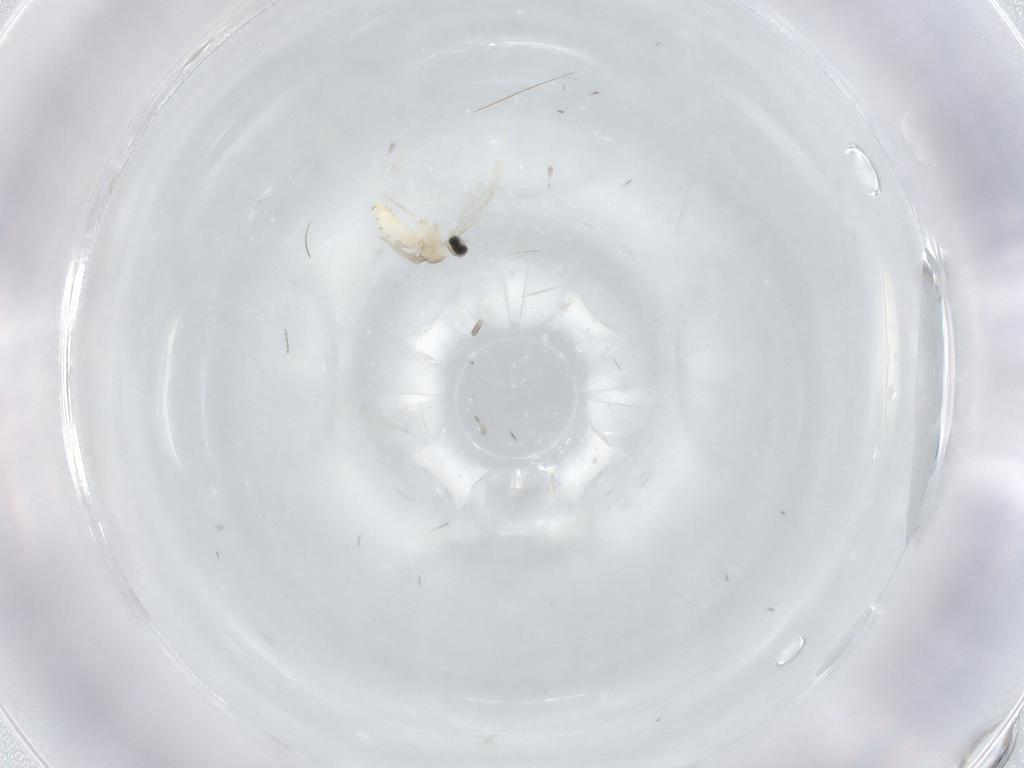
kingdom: Animalia
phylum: Arthropoda
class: Insecta
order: Diptera
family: Cecidomyiidae
